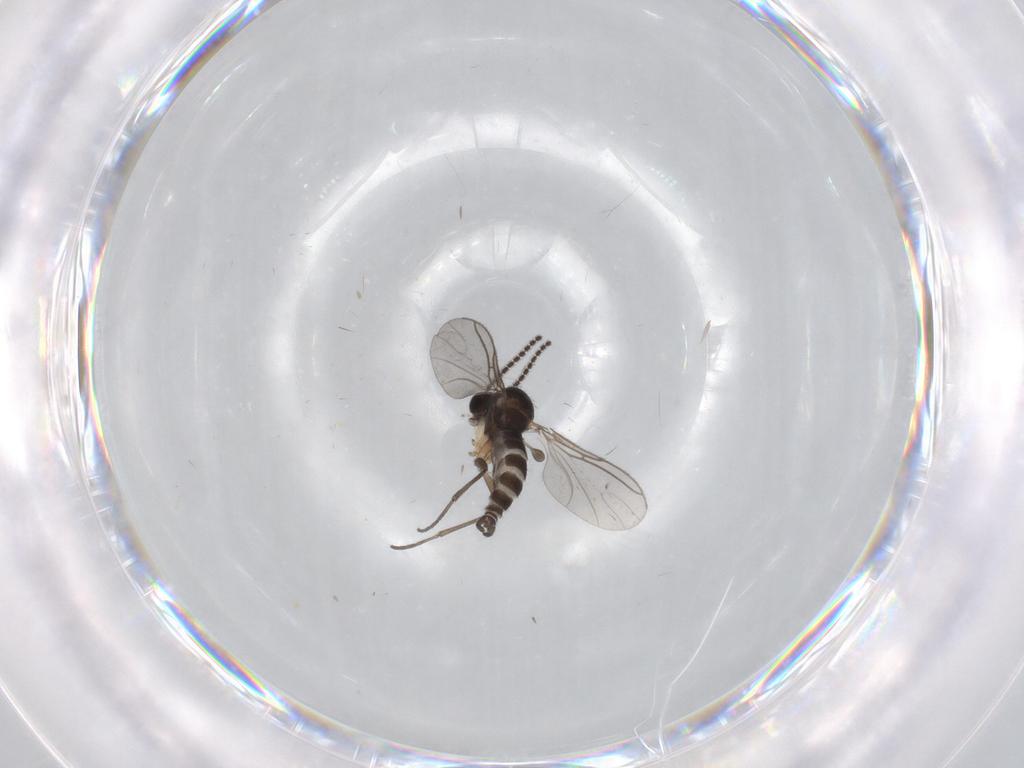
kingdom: Animalia
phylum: Arthropoda
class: Insecta
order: Diptera
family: Sciaridae
